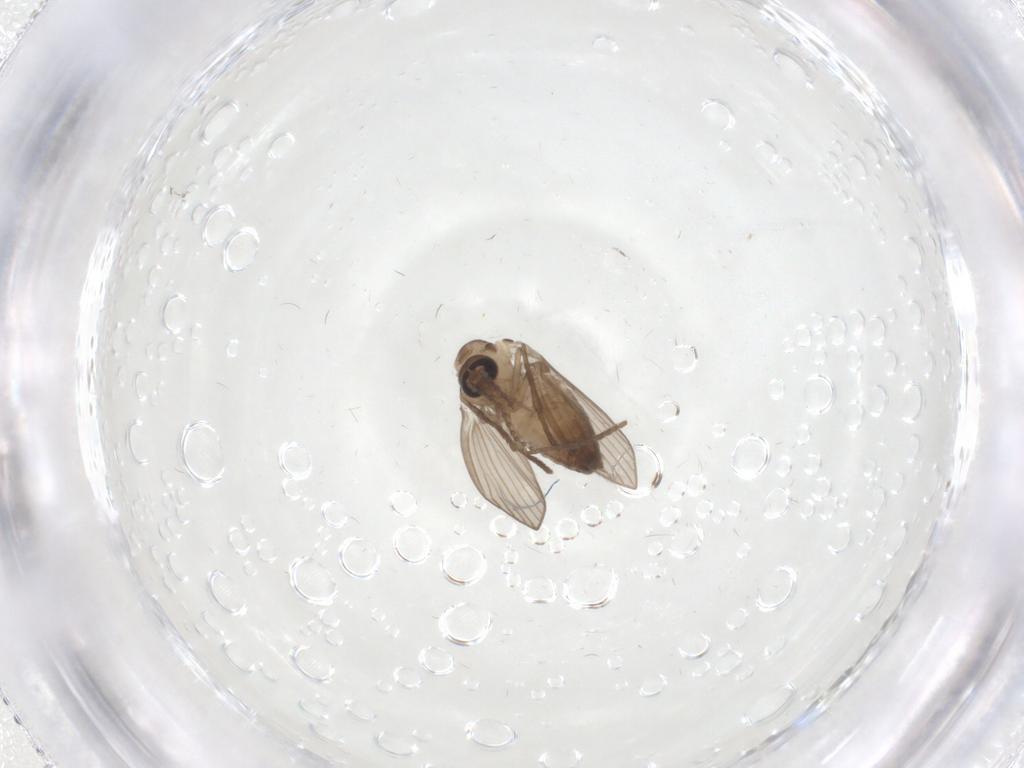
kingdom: Animalia
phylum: Arthropoda
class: Insecta
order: Diptera
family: Psychodidae
